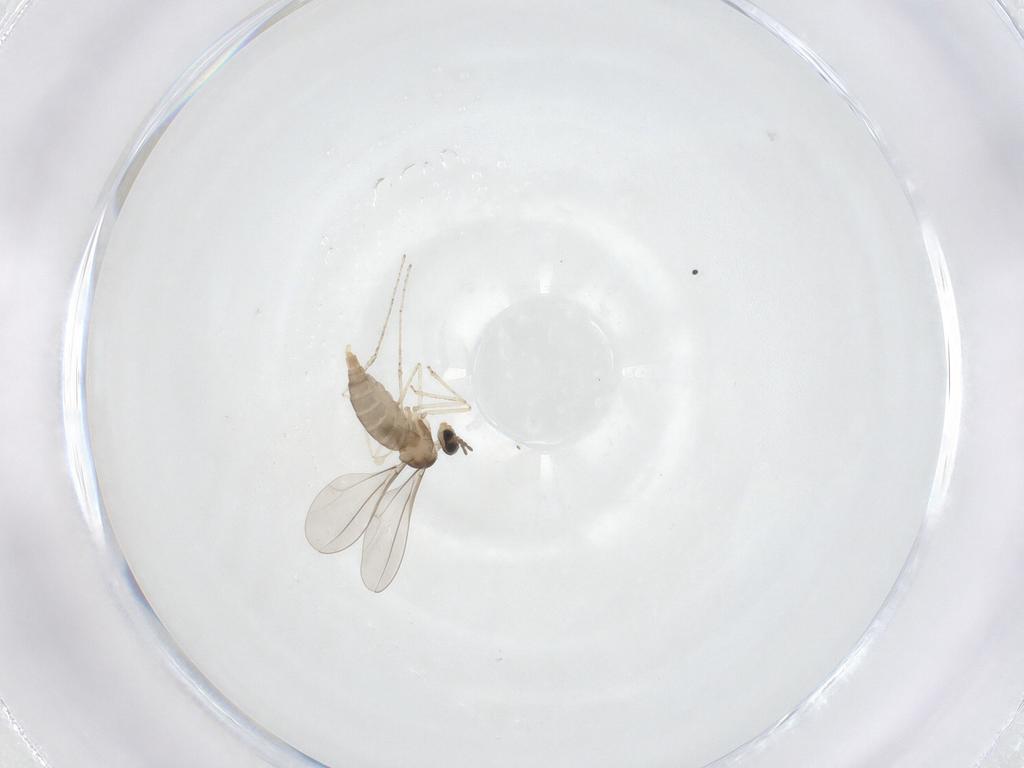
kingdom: Animalia
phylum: Arthropoda
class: Insecta
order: Diptera
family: Cecidomyiidae
